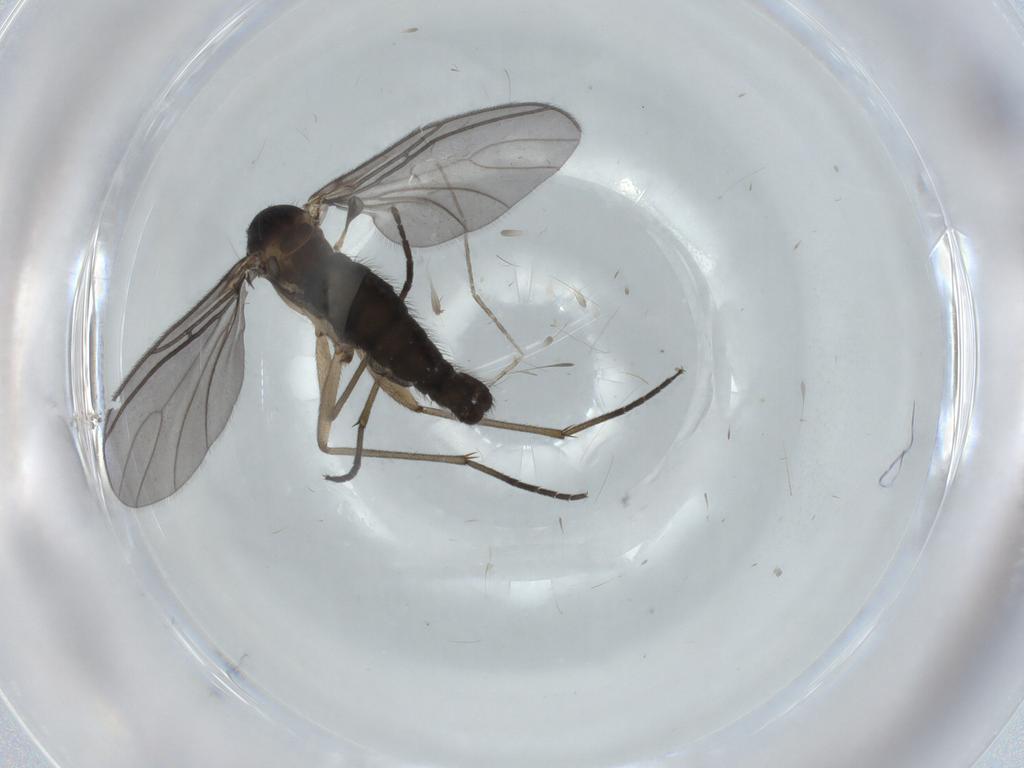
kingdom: Animalia
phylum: Arthropoda
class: Insecta
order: Diptera
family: Sciaridae
